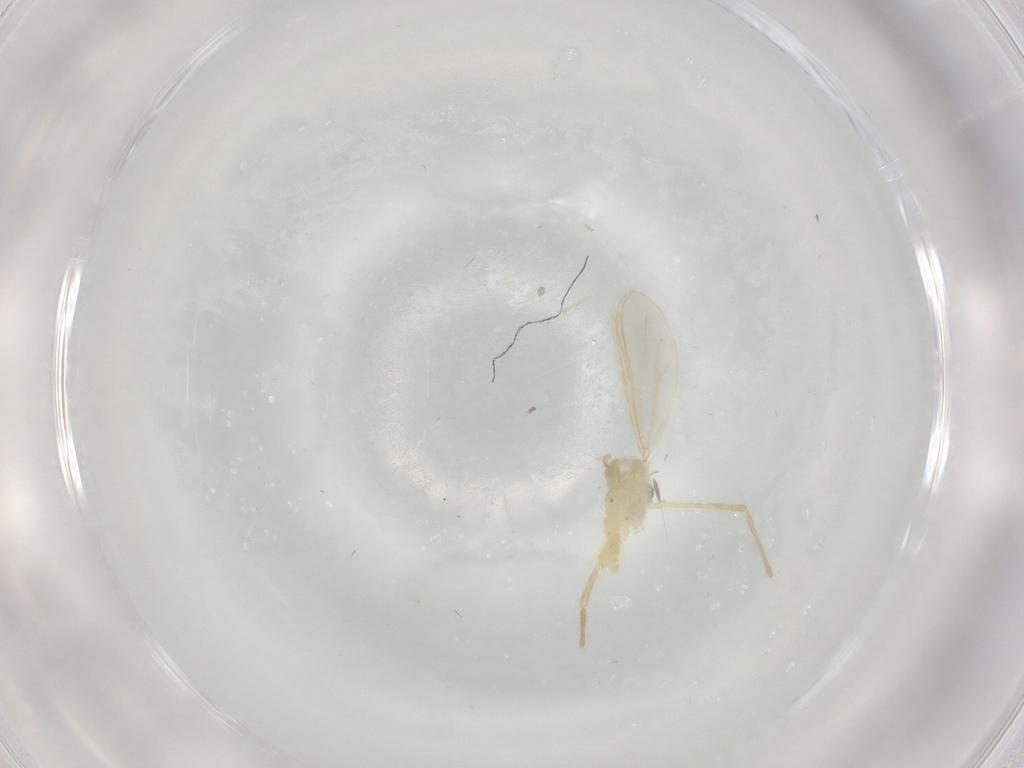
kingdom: Animalia
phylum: Arthropoda
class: Insecta
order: Diptera
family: Chironomidae
